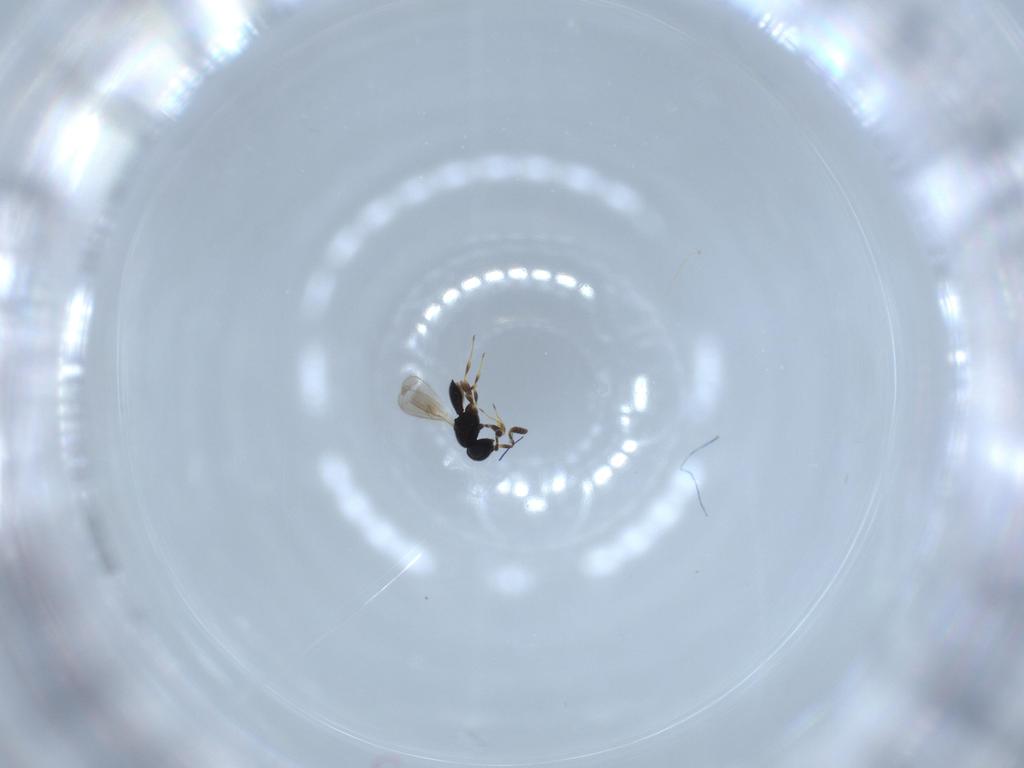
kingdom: Animalia
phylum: Arthropoda
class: Insecta
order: Hymenoptera
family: Scelionidae
